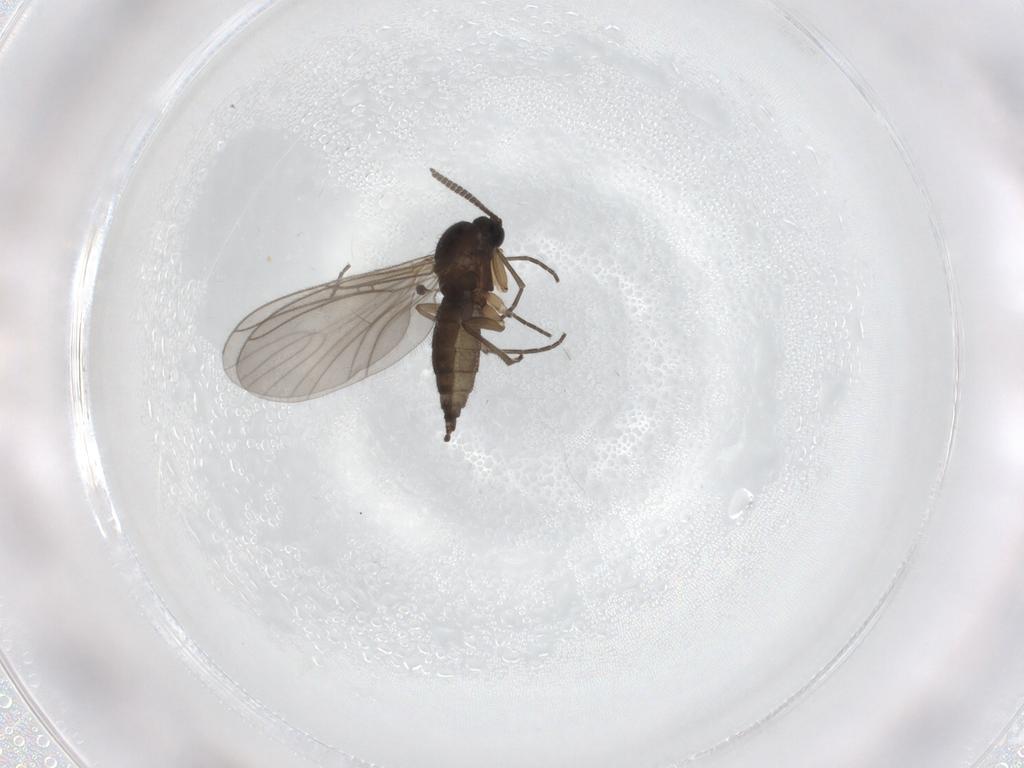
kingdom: Animalia
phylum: Arthropoda
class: Insecta
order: Diptera
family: Sciaridae
